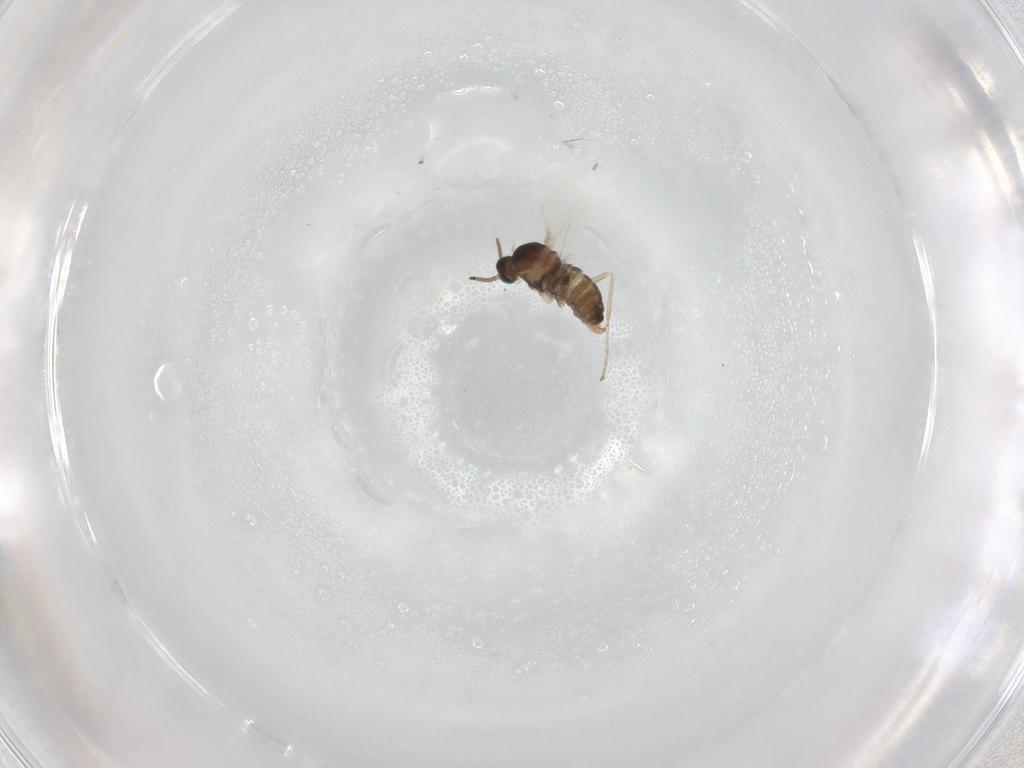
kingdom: Animalia
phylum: Arthropoda
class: Insecta
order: Diptera
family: Cecidomyiidae
